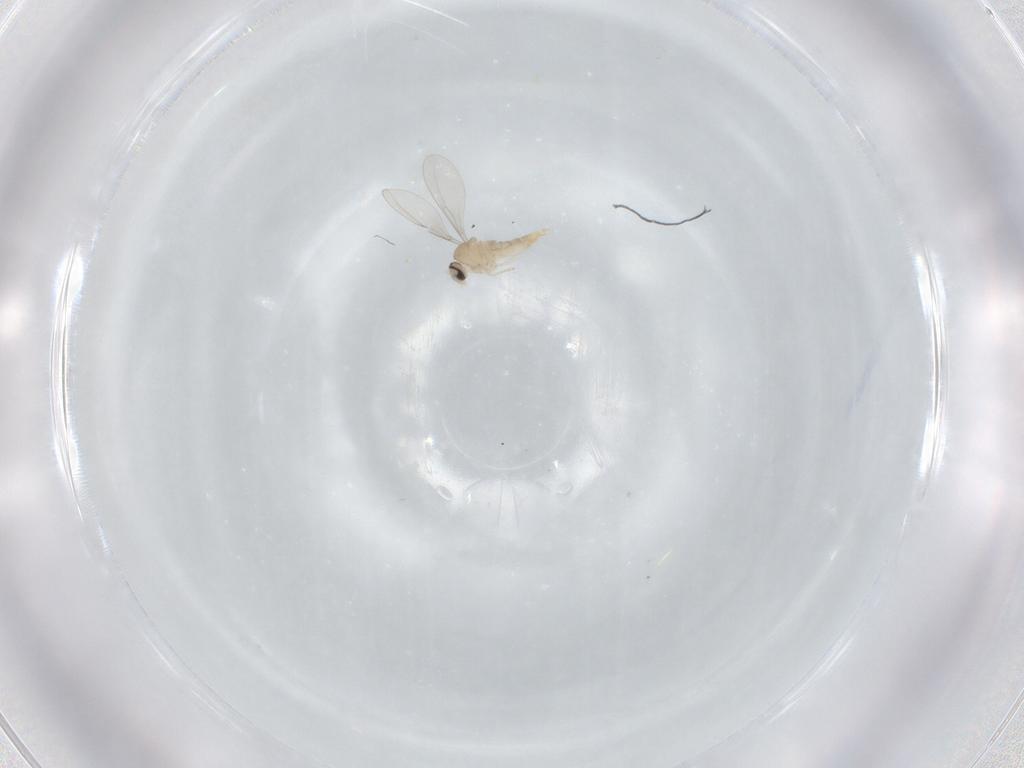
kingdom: Animalia
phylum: Arthropoda
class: Insecta
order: Diptera
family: Cecidomyiidae
